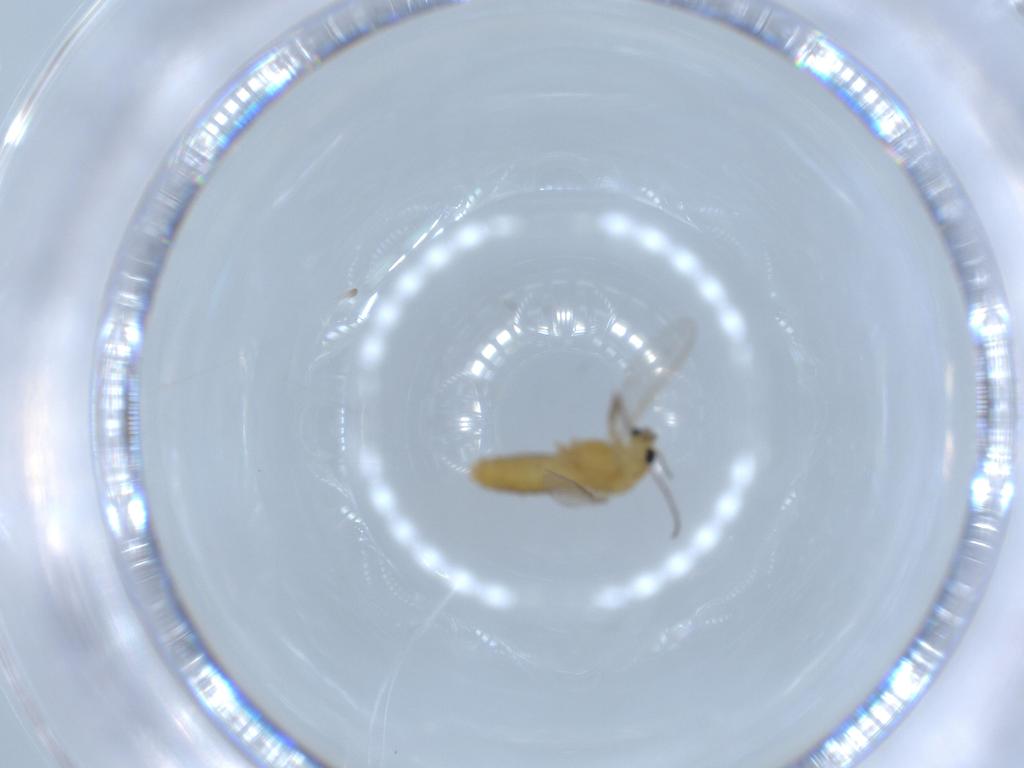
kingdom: Animalia
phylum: Arthropoda
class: Insecta
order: Diptera
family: Chironomidae
